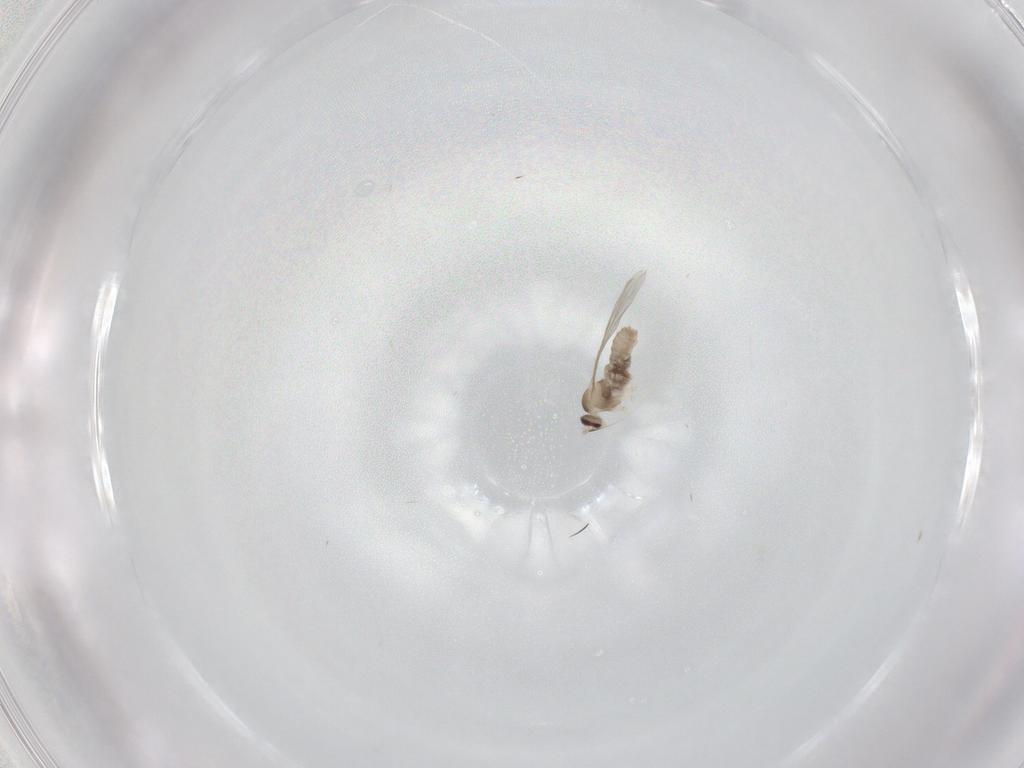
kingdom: Animalia
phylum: Arthropoda
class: Insecta
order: Diptera
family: Cecidomyiidae
